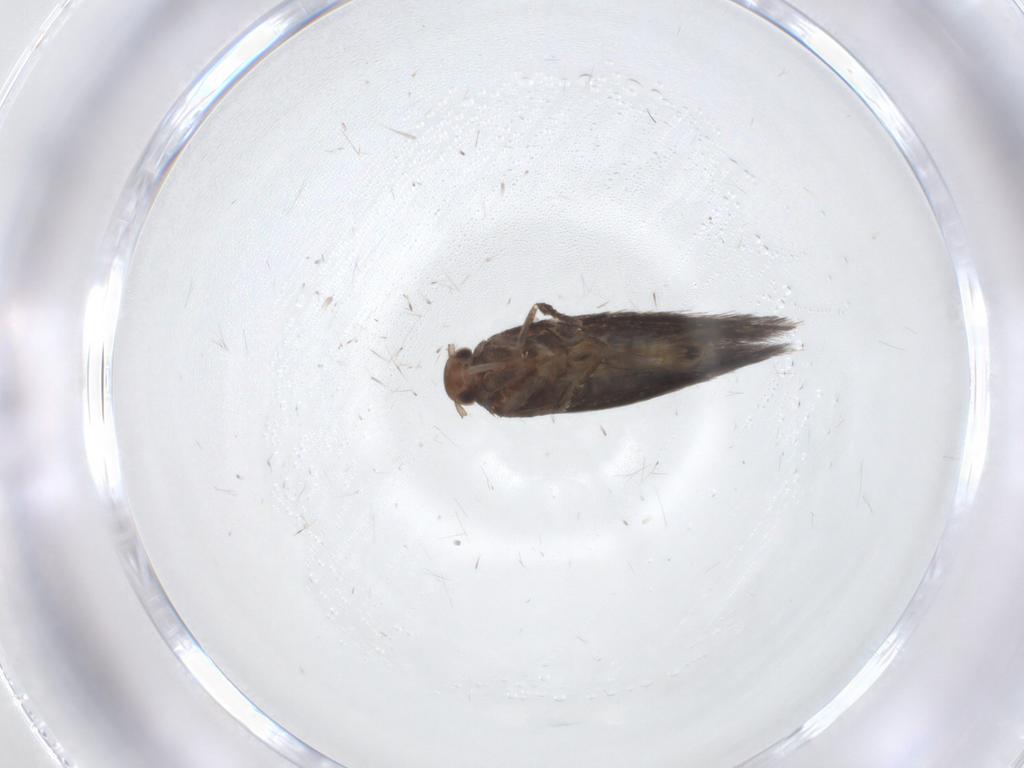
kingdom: Animalia
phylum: Arthropoda
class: Insecta
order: Lepidoptera
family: Elachistidae
